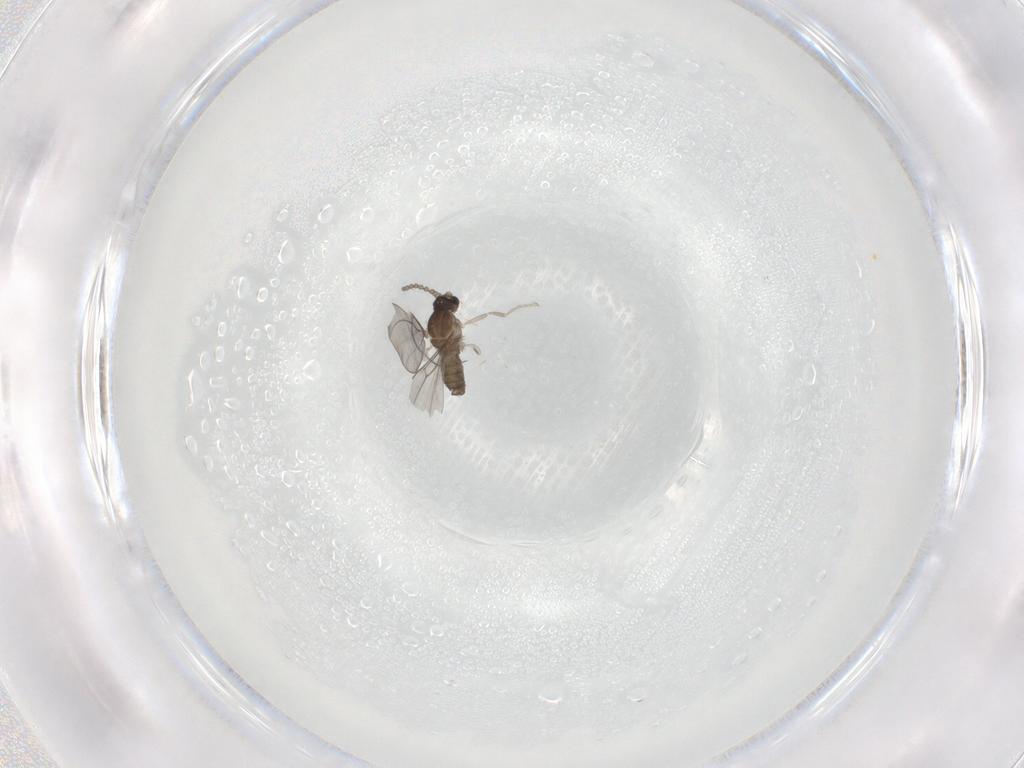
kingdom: Animalia
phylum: Arthropoda
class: Insecta
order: Diptera
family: Cecidomyiidae
